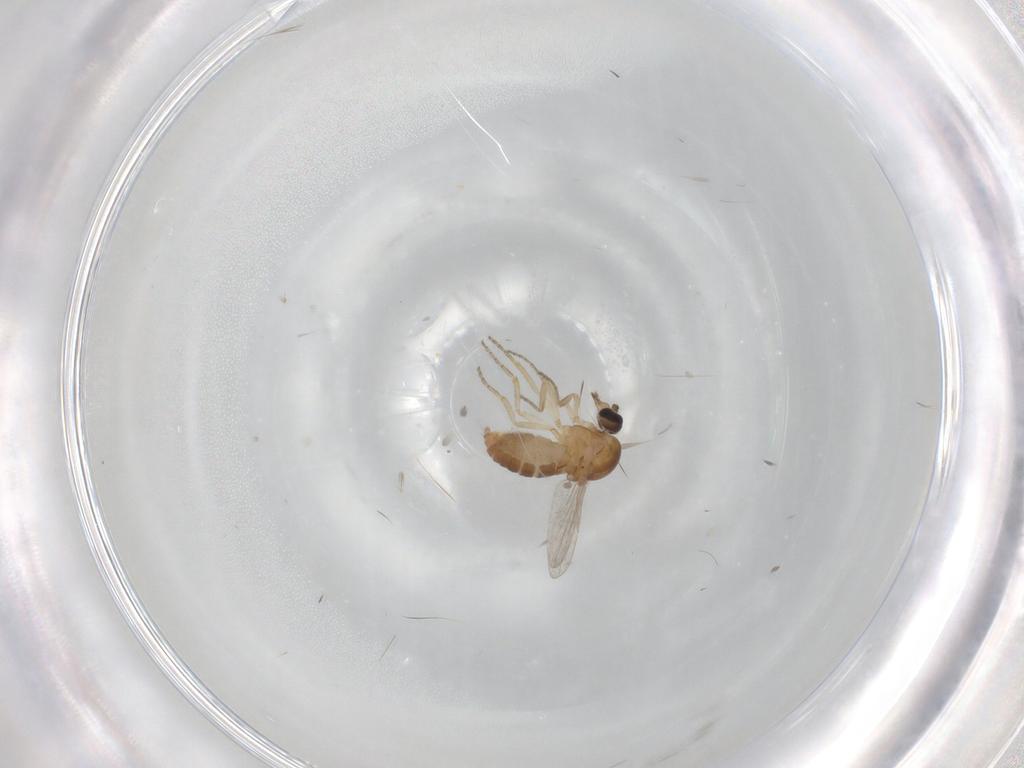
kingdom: Animalia
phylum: Arthropoda
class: Insecta
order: Diptera
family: Ceratopogonidae
